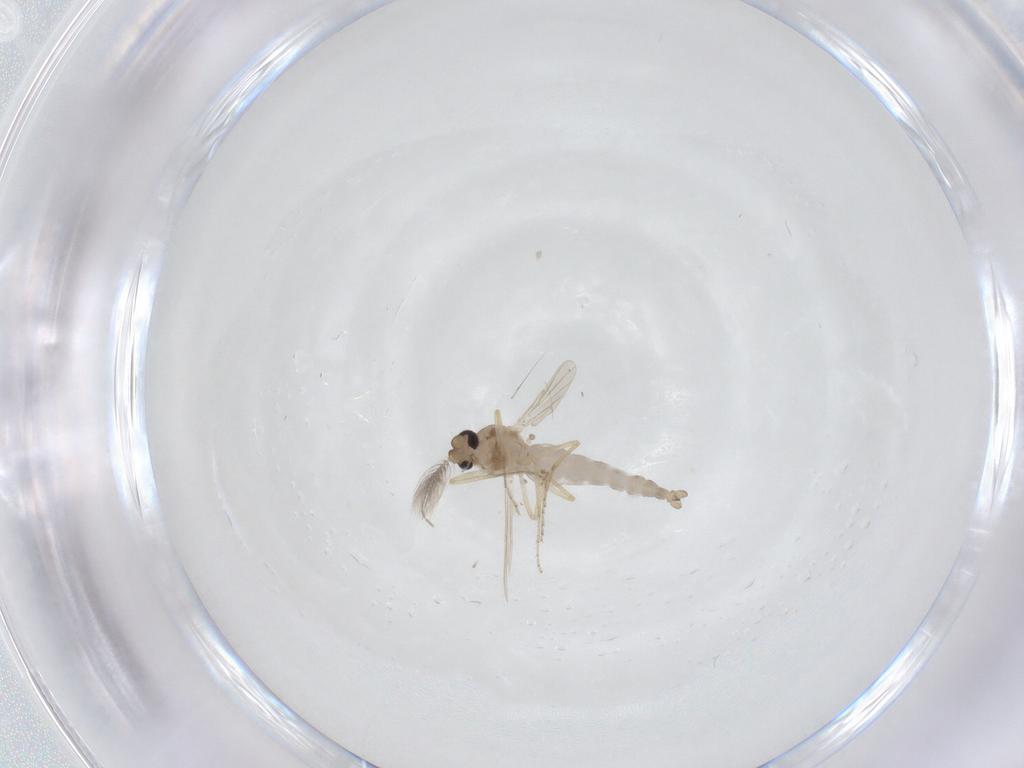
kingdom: Animalia
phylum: Arthropoda
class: Insecta
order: Diptera
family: Ceratopogonidae
